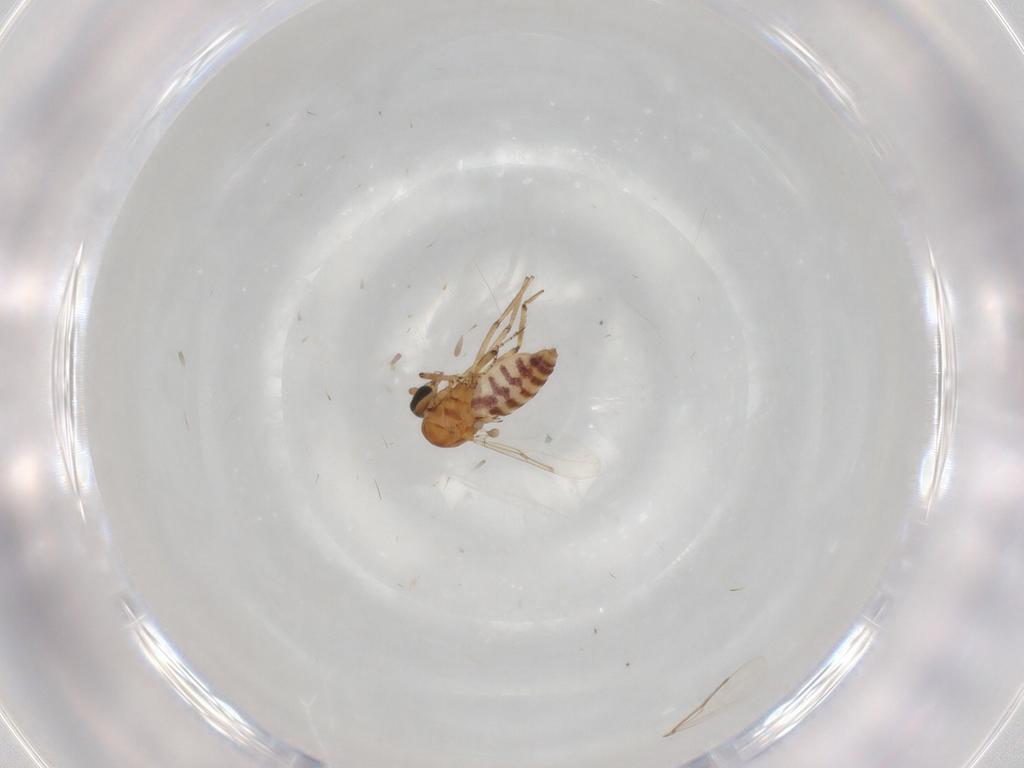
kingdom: Animalia
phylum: Arthropoda
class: Insecta
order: Diptera
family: Ceratopogonidae
